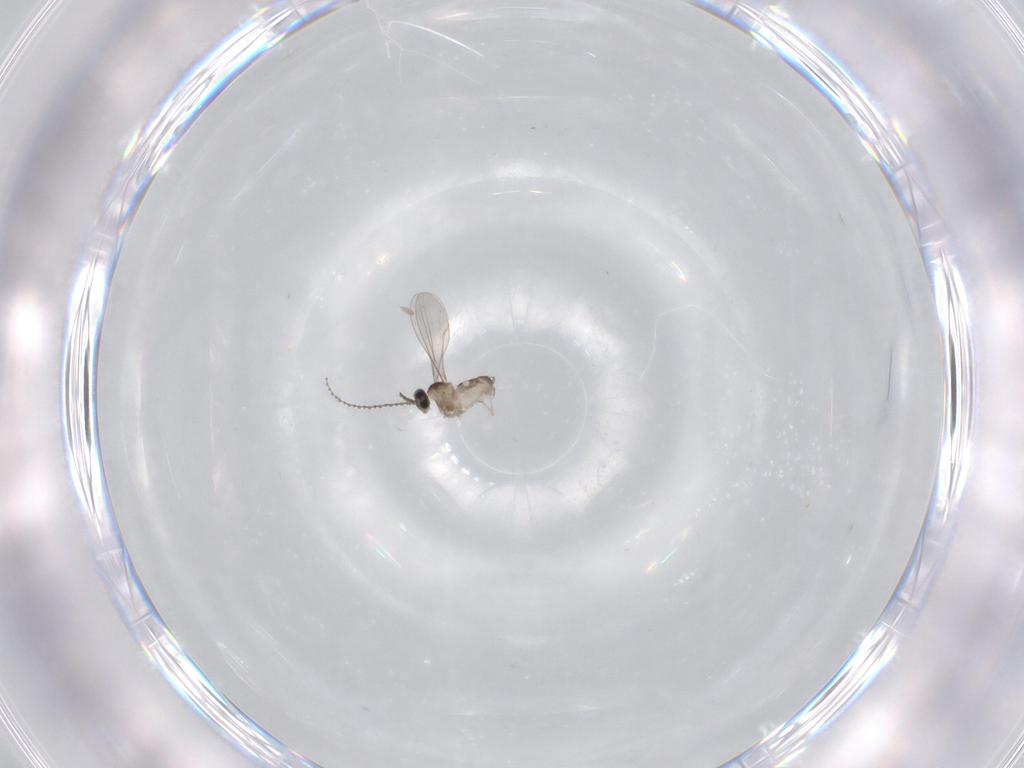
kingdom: Animalia
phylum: Arthropoda
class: Insecta
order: Diptera
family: Cecidomyiidae
